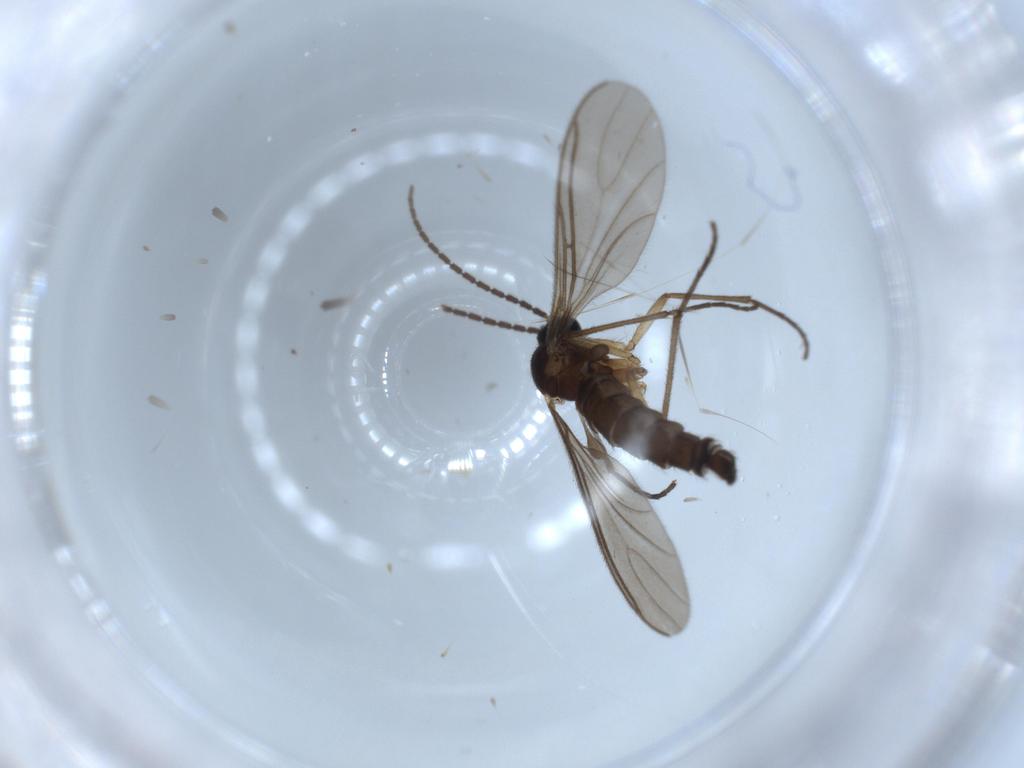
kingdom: Animalia
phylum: Arthropoda
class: Insecta
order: Diptera
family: Sciaridae
